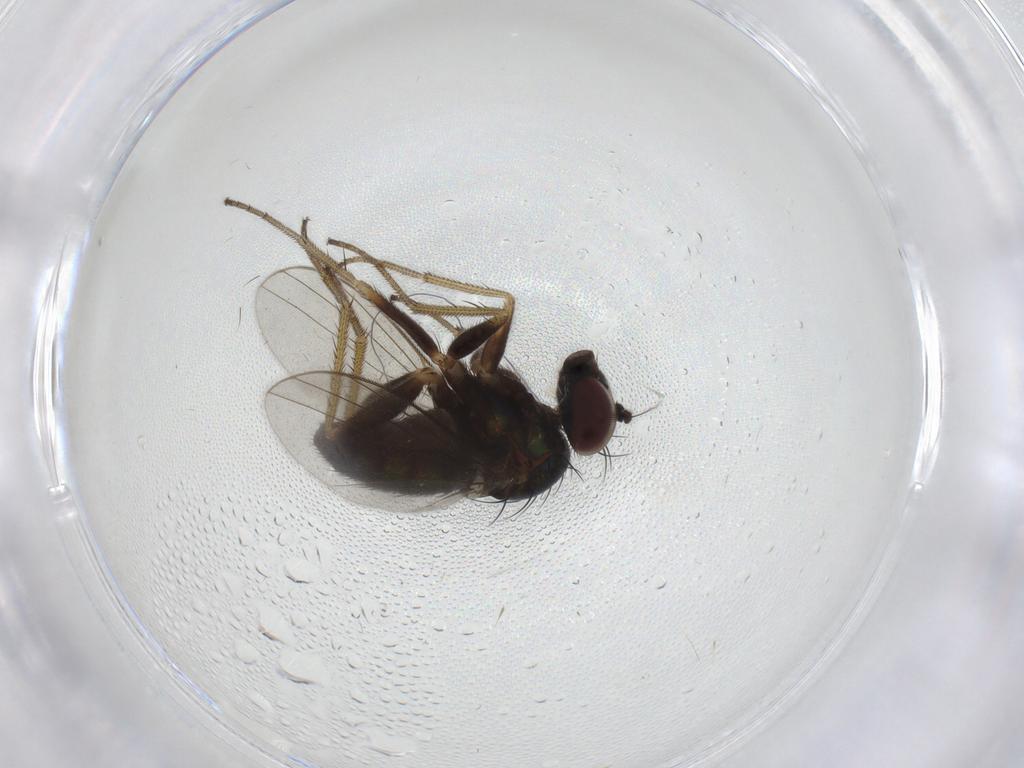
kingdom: Animalia
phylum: Arthropoda
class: Insecta
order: Diptera
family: Dolichopodidae
